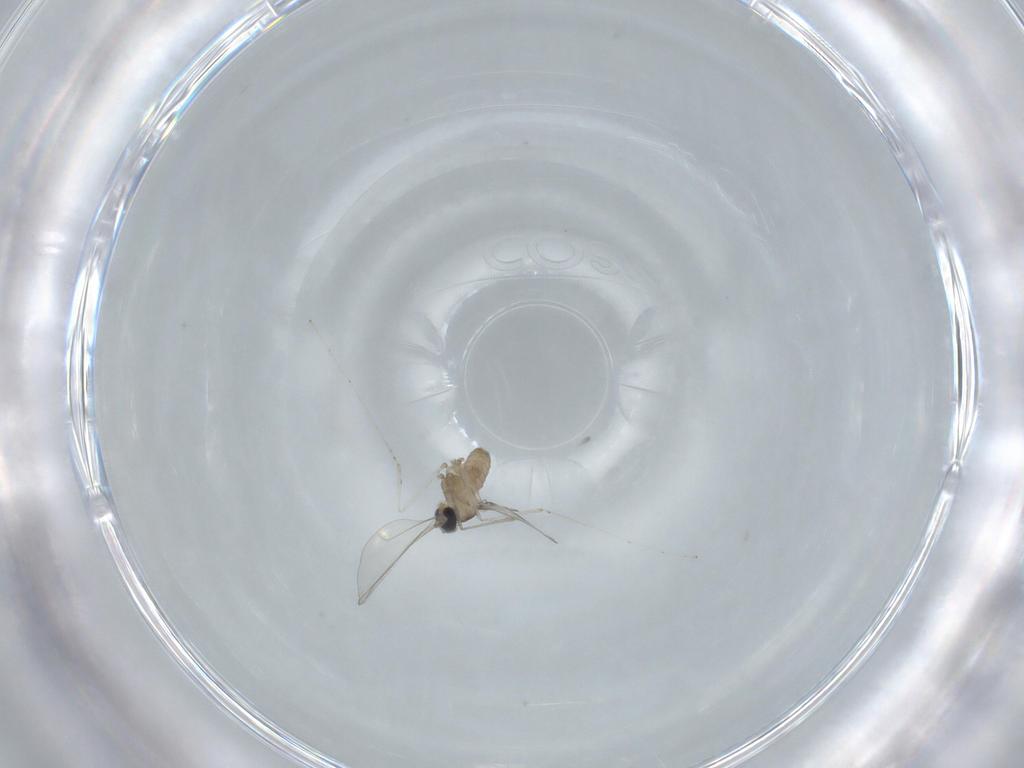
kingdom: Animalia
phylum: Arthropoda
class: Insecta
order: Diptera
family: Cecidomyiidae
